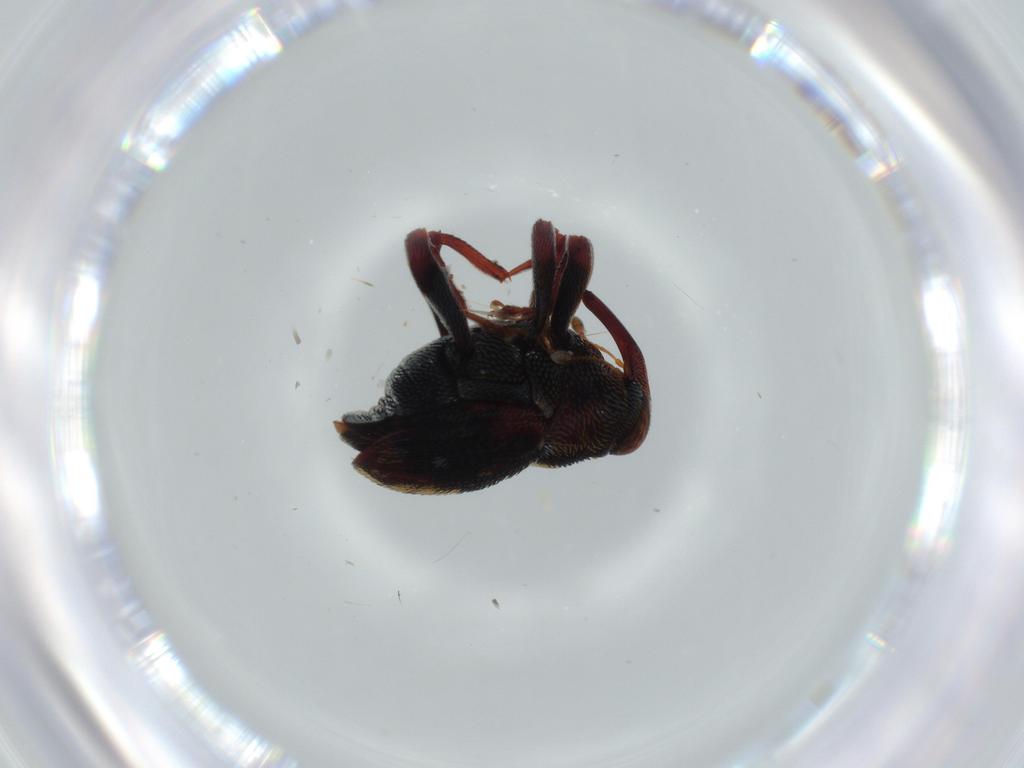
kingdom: Animalia
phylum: Arthropoda
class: Insecta
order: Coleoptera
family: Aderidae
